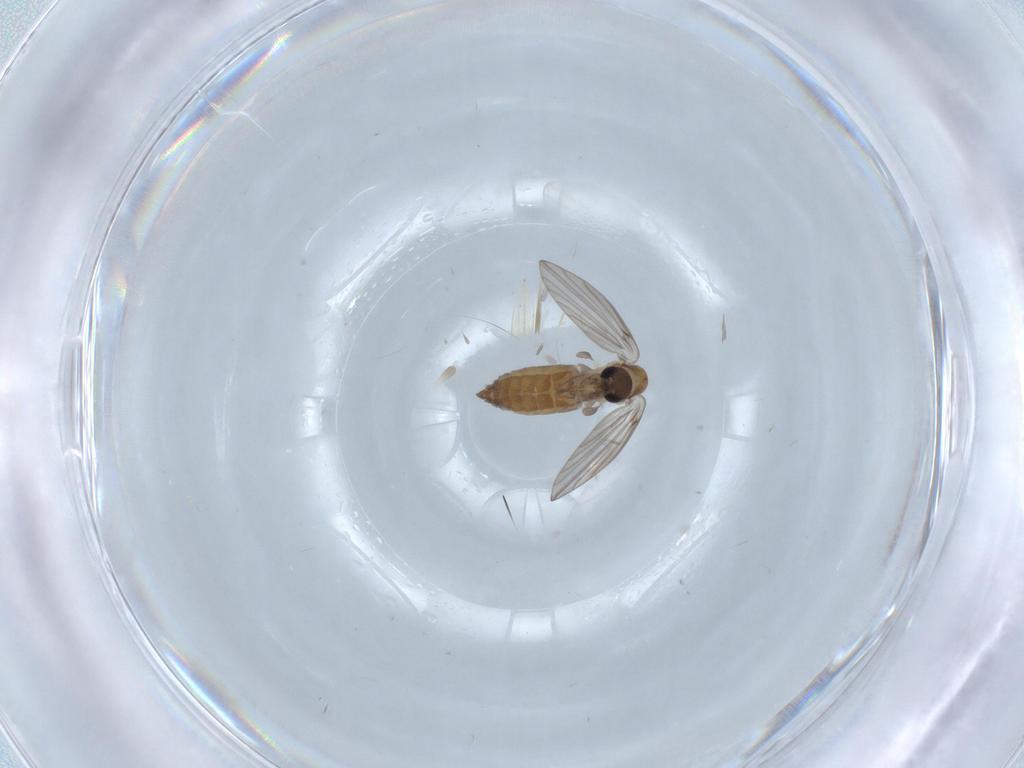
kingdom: Animalia
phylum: Arthropoda
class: Insecta
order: Diptera
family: Psychodidae
